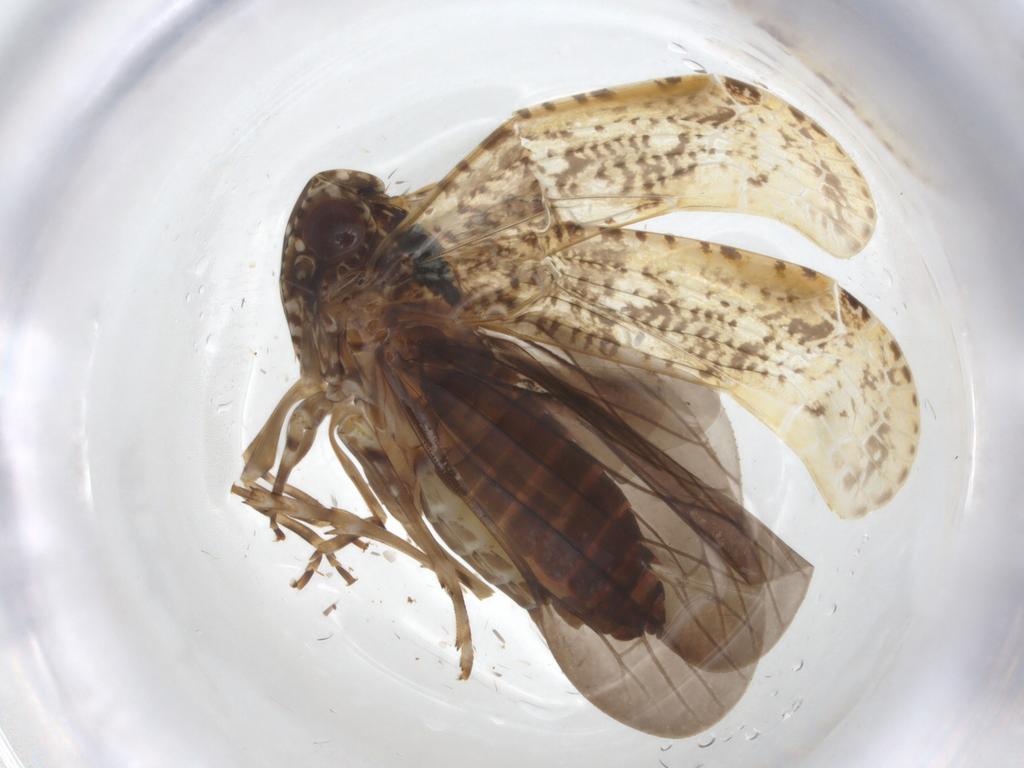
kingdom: Animalia
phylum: Arthropoda
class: Insecta
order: Hemiptera
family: Achilidae
